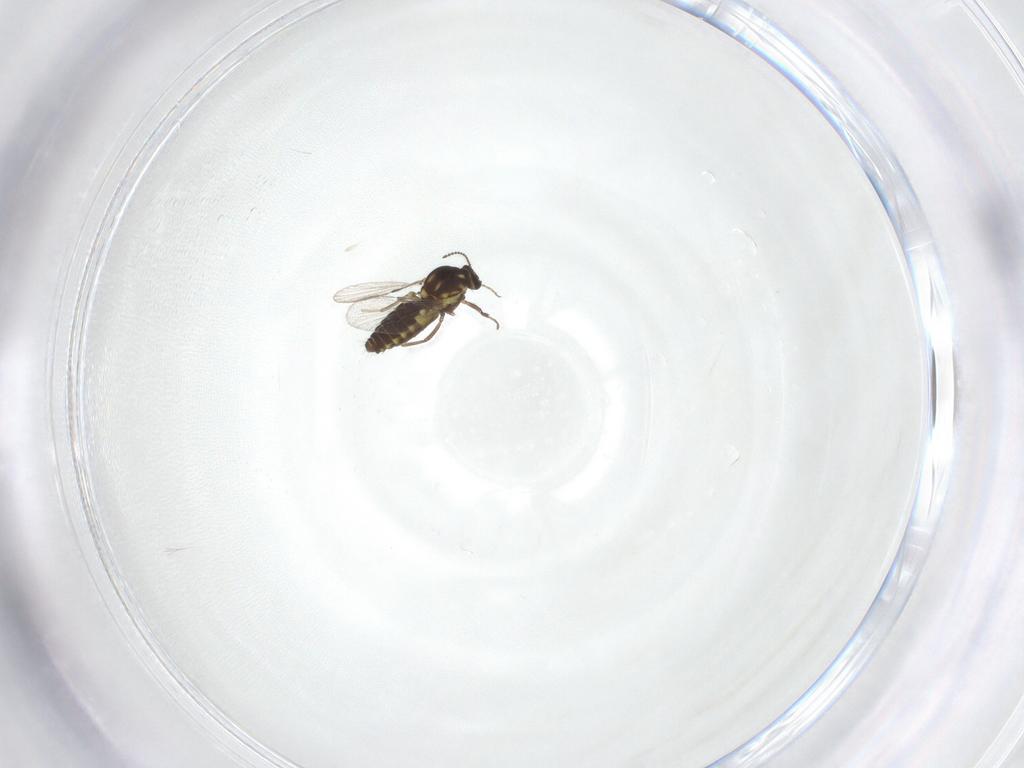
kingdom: Animalia
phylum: Arthropoda
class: Insecta
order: Diptera
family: Ceratopogonidae
